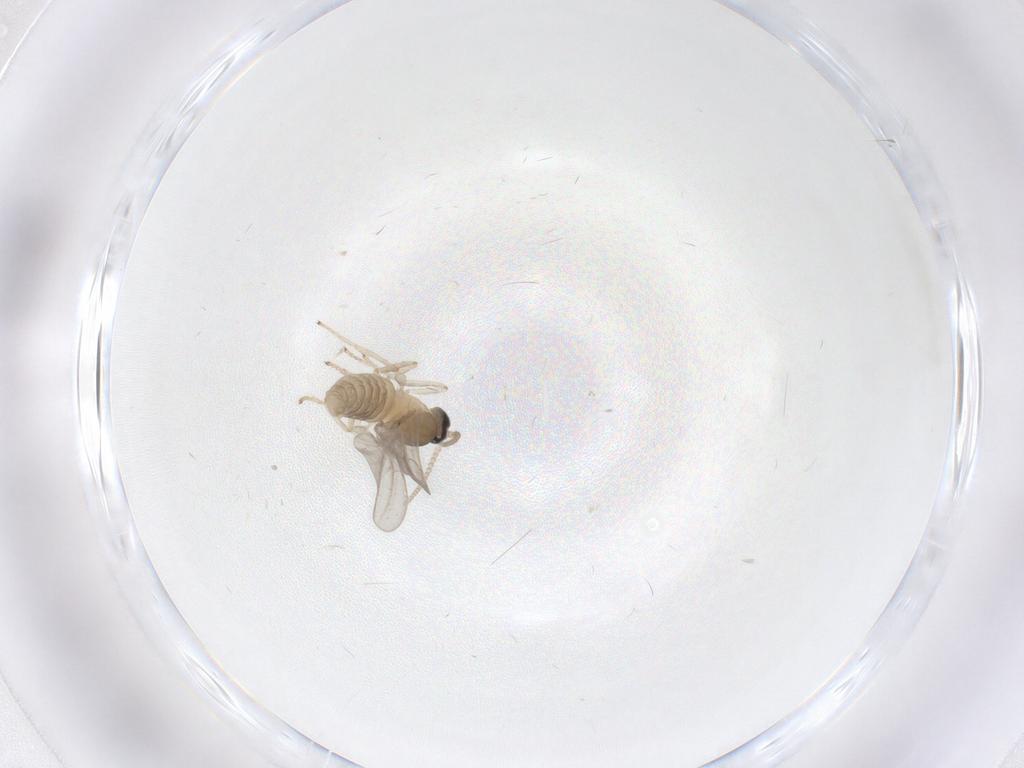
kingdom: Animalia
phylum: Arthropoda
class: Insecta
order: Diptera
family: Cecidomyiidae
